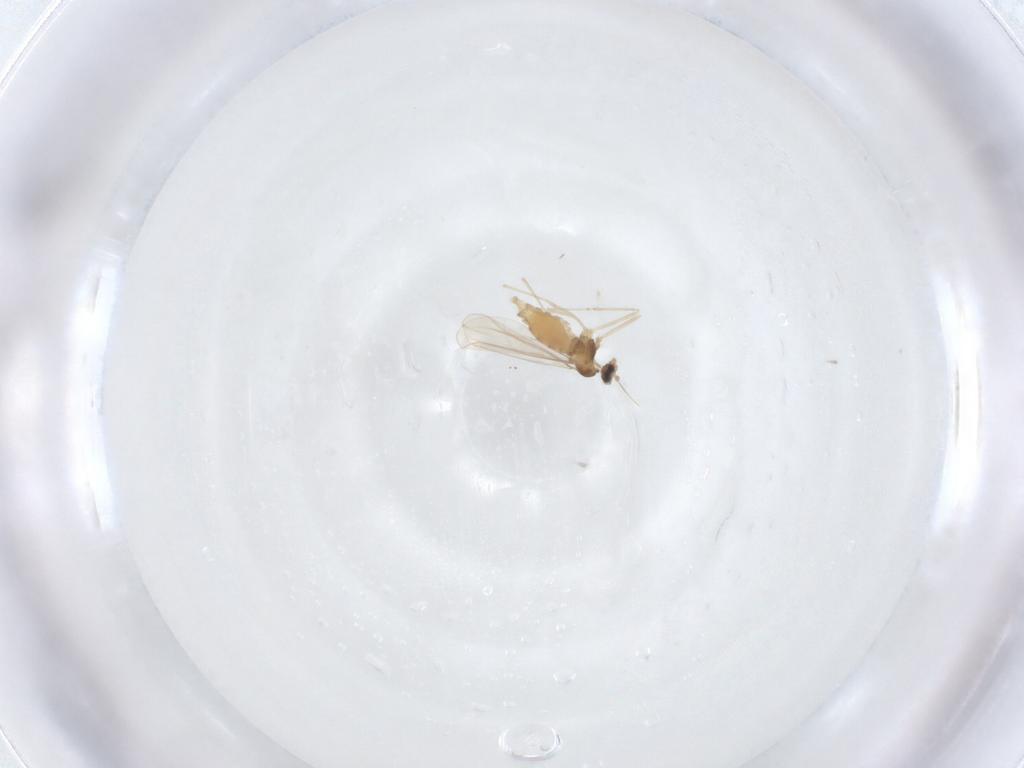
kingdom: Animalia
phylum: Arthropoda
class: Insecta
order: Diptera
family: Cecidomyiidae
